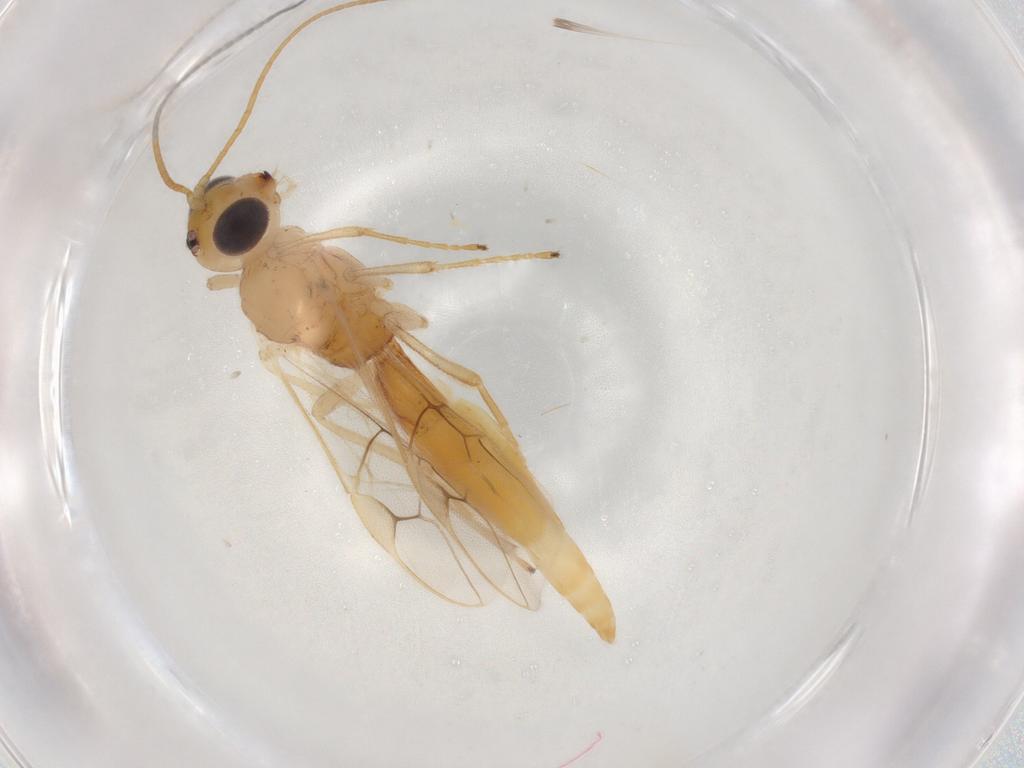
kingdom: Animalia
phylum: Arthropoda
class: Insecta
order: Hymenoptera
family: Braconidae
